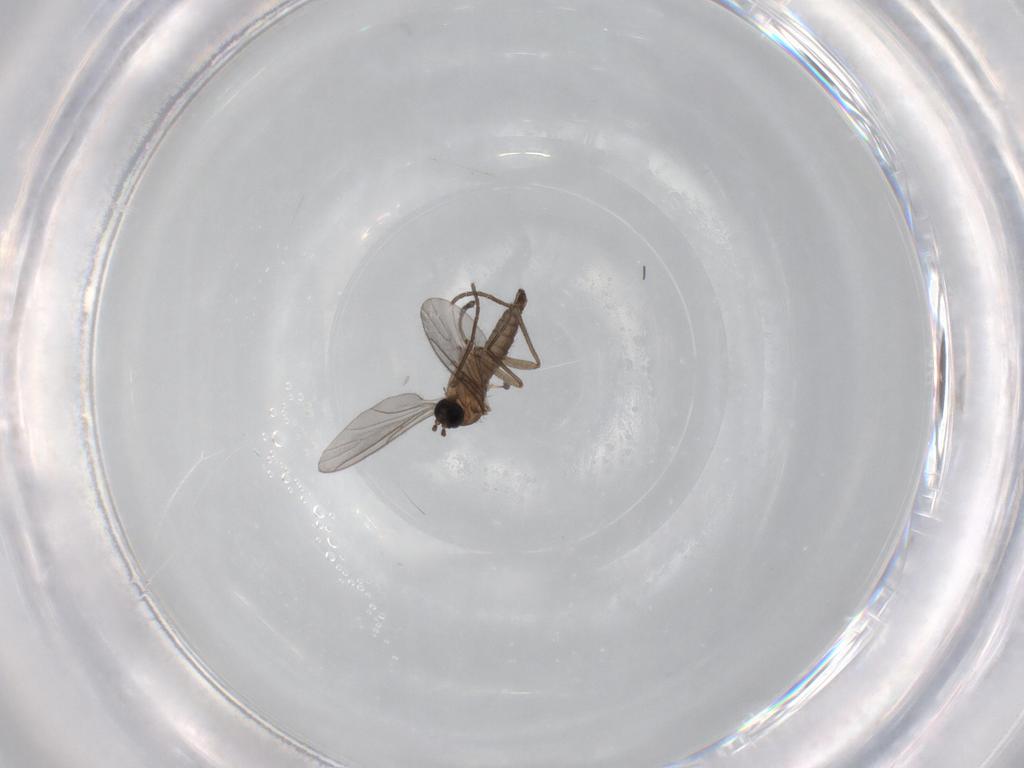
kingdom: Animalia
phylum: Arthropoda
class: Insecta
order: Diptera
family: Sciaridae
